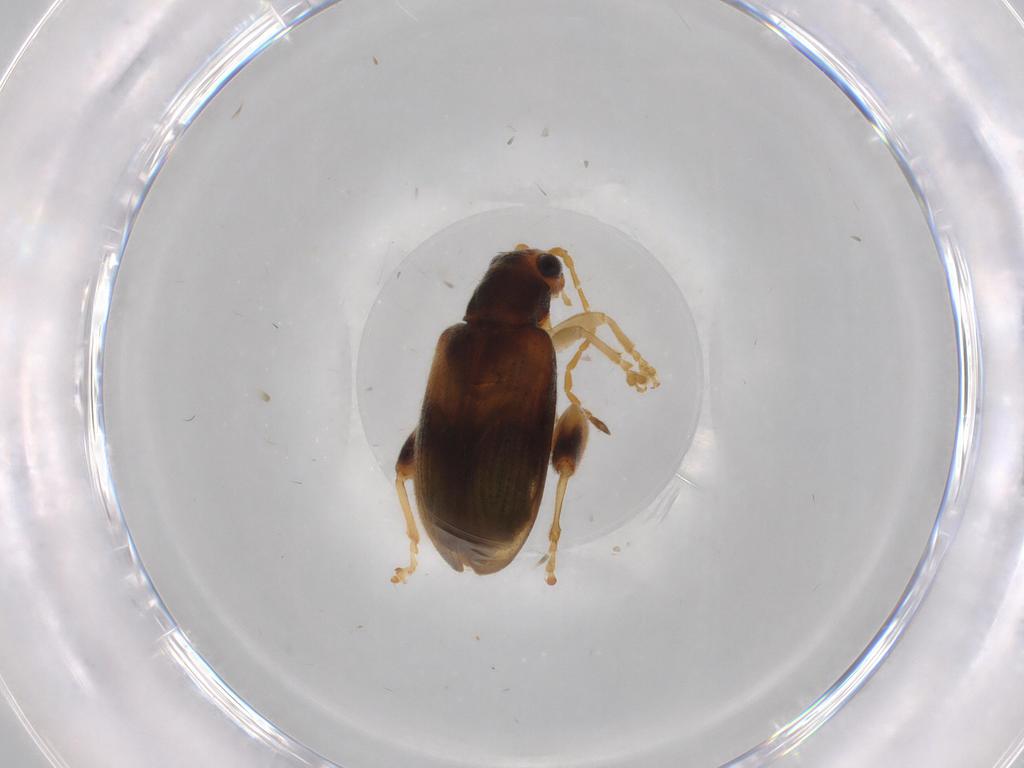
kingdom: Animalia
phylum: Arthropoda
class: Insecta
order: Coleoptera
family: Chrysomelidae
